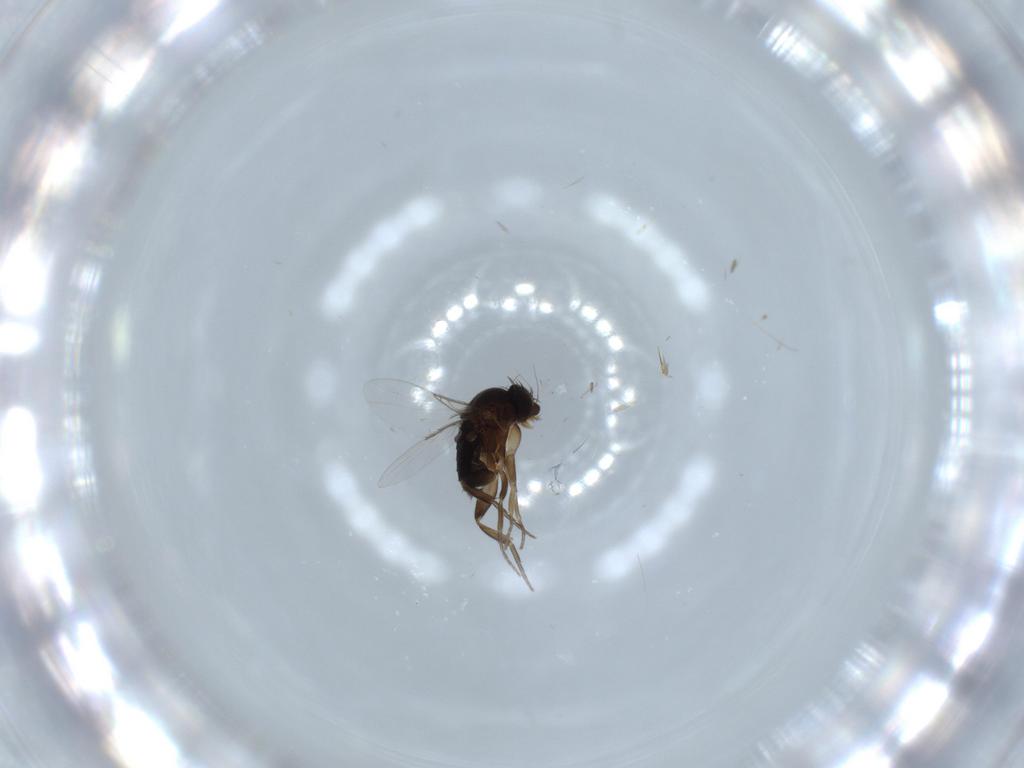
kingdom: Animalia
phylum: Arthropoda
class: Insecta
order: Diptera
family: Phoridae
